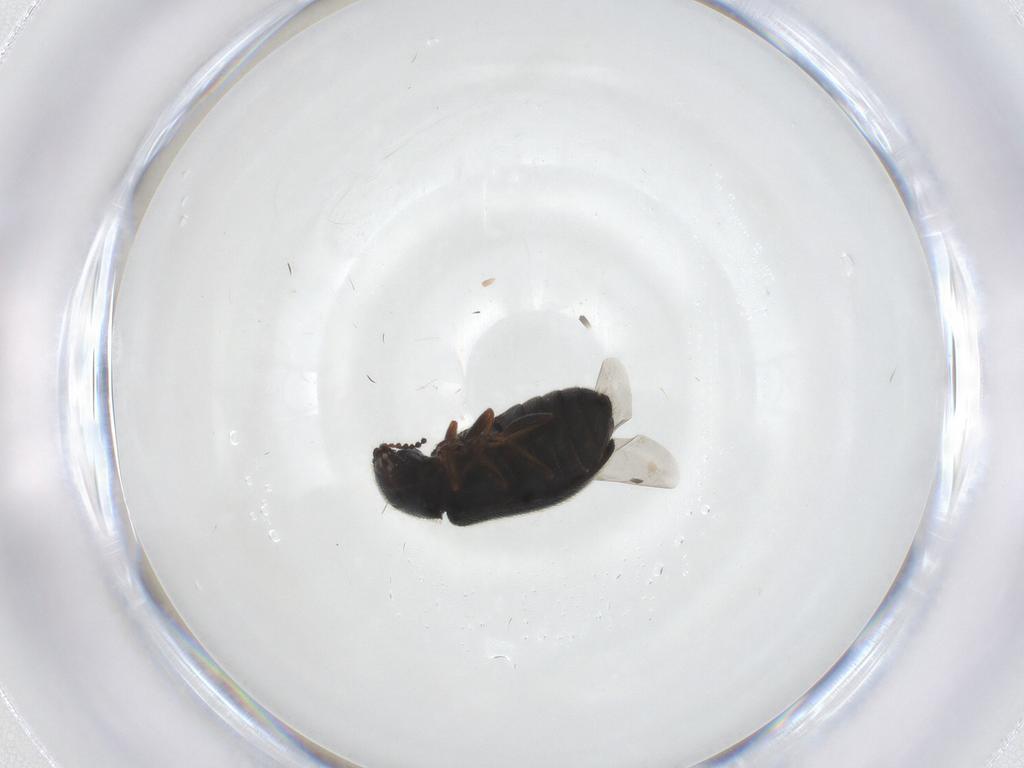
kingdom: Animalia
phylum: Arthropoda
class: Insecta
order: Coleoptera
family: Melyridae
